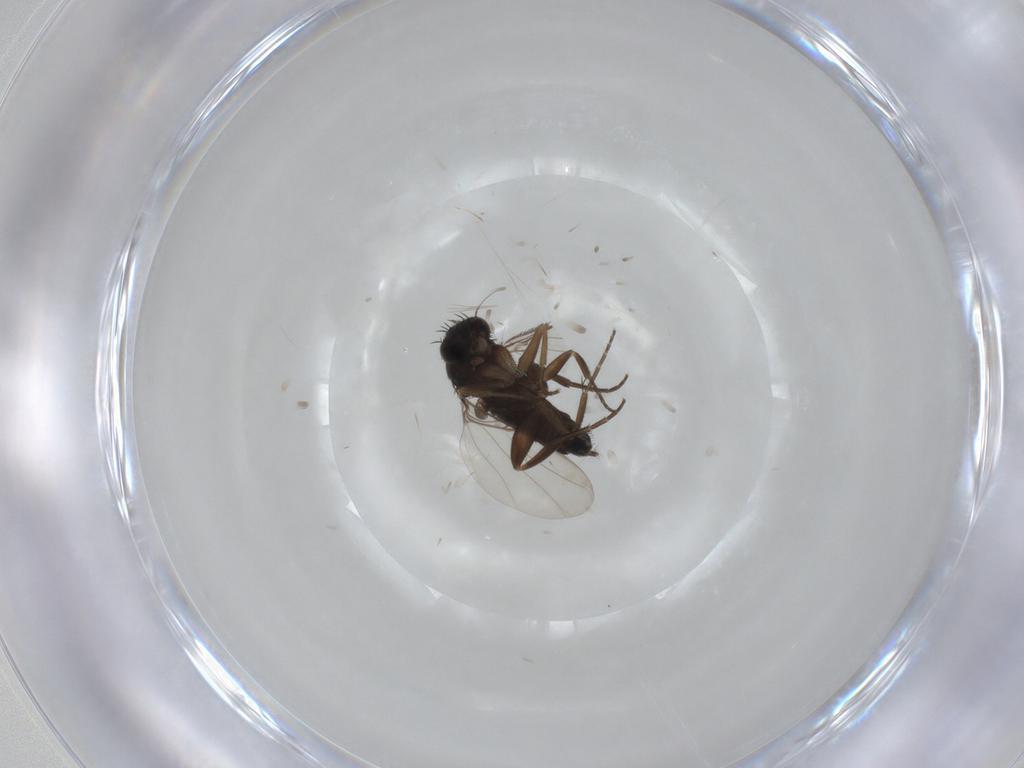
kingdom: Animalia
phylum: Arthropoda
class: Insecta
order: Diptera
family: Phoridae
